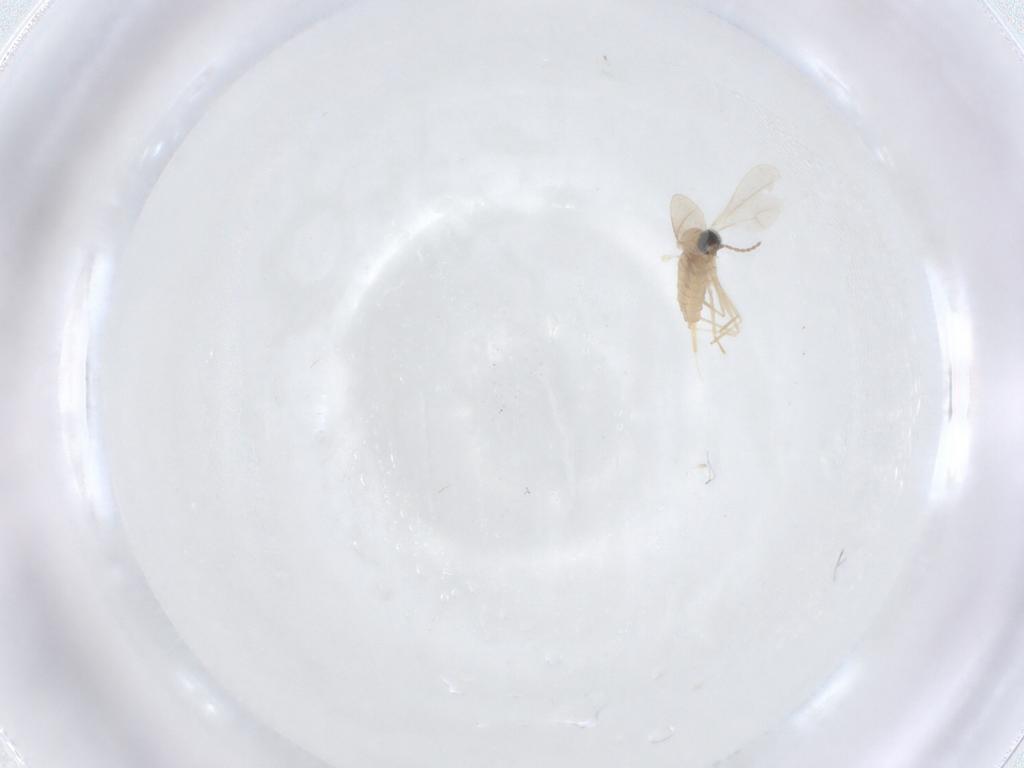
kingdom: Animalia
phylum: Arthropoda
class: Insecta
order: Diptera
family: Cecidomyiidae
